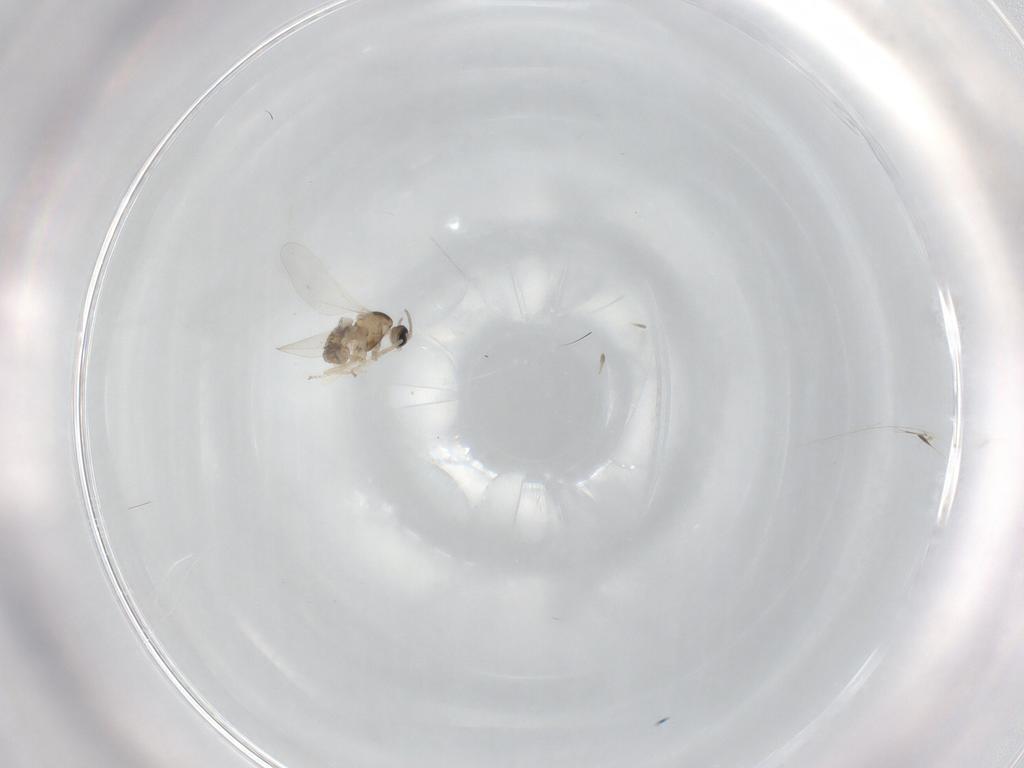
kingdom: Animalia
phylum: Arthropoda
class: Insecta
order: Diptera
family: Cecidomyiidae
